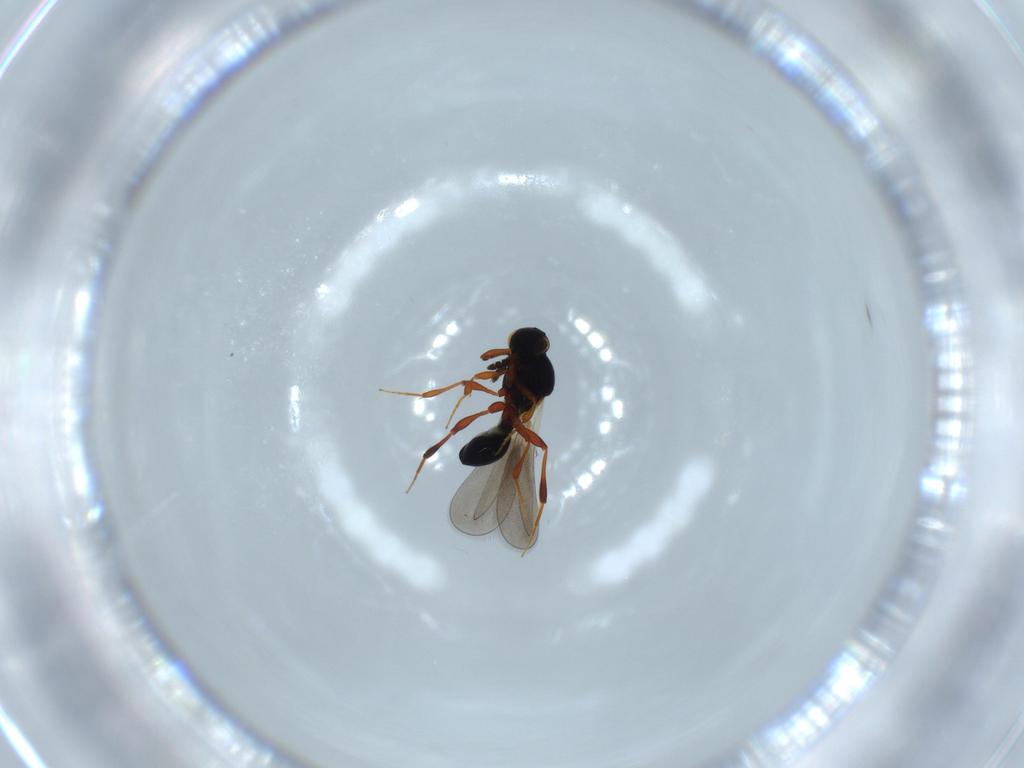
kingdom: Animalia
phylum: Arthropoda
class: Insecta
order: Hymenoptera
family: Platygastridae
